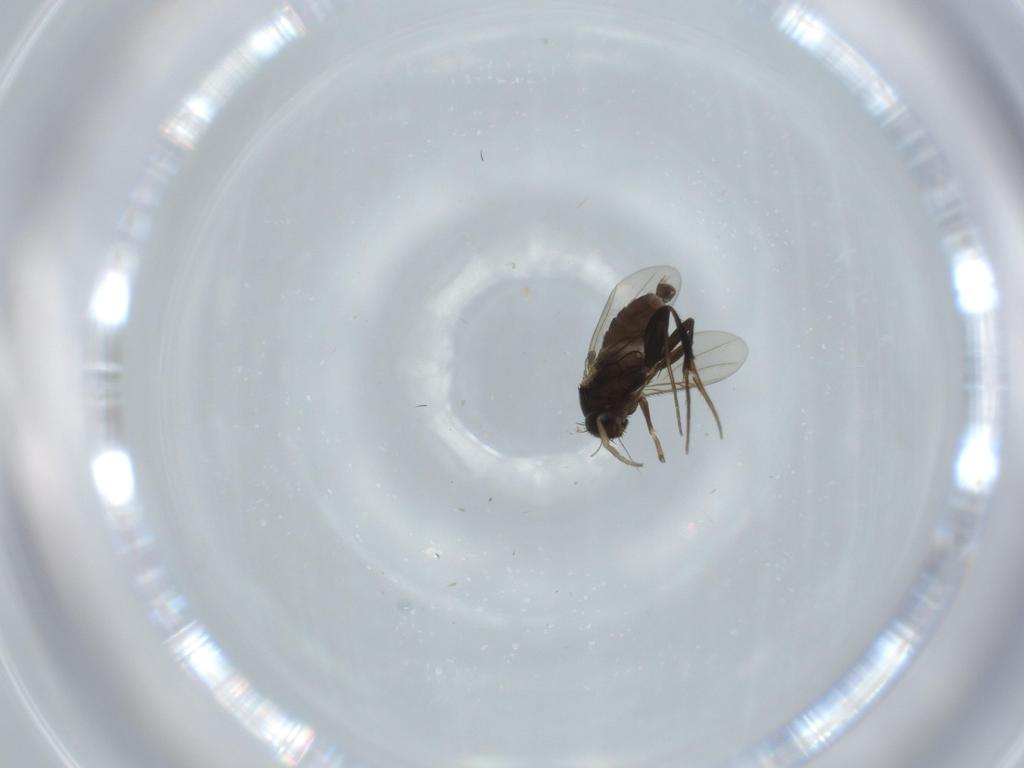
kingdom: Animalia
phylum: Arthropoda
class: Insecta
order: Diptera
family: Phoridae
